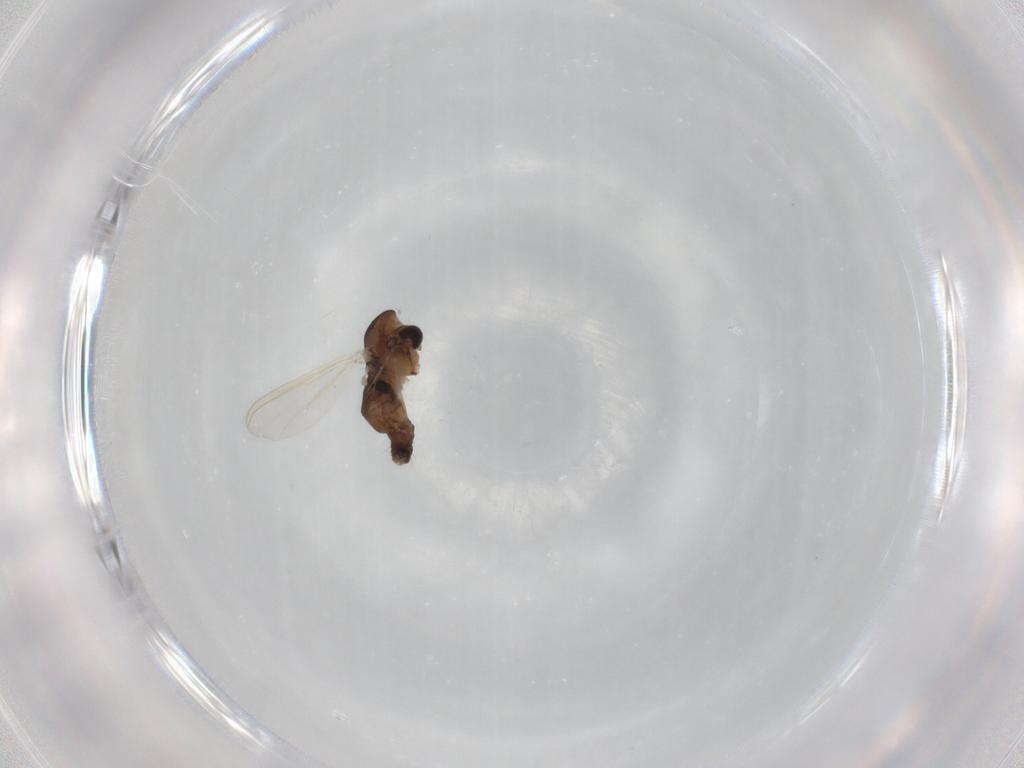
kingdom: Animalia
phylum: Arthropoda
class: Insecta
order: Diptera
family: Chironomidae
